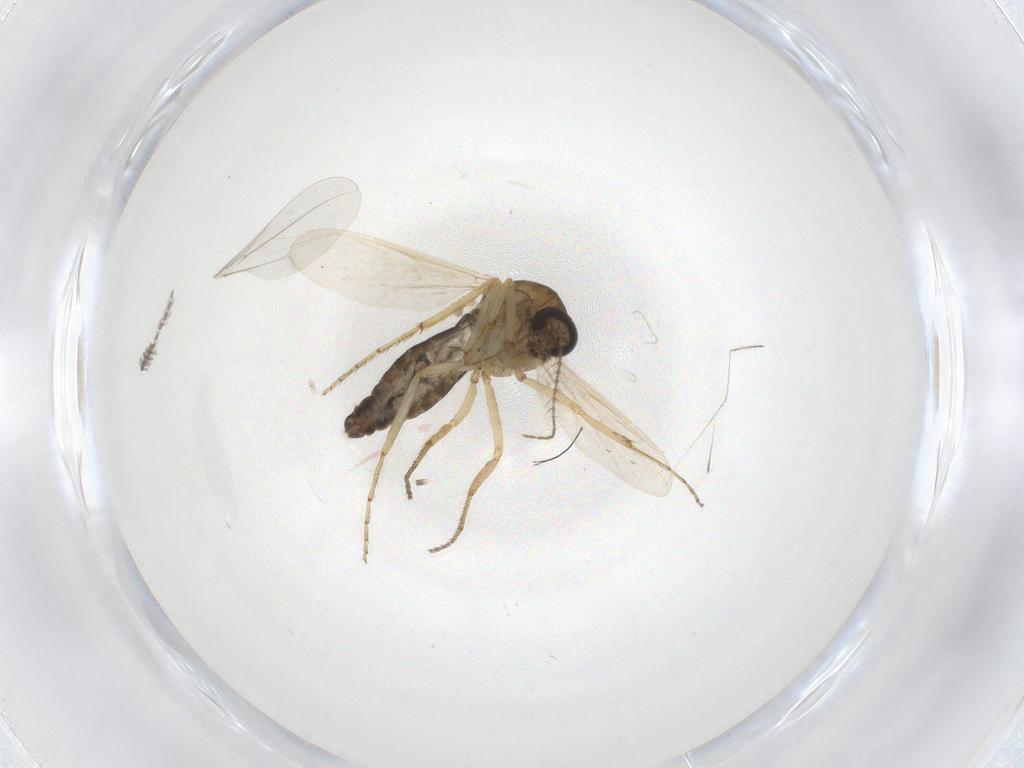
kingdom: Animalia
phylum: Arthropoda
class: Insecta
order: Diptera
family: Ceratopogonidae
